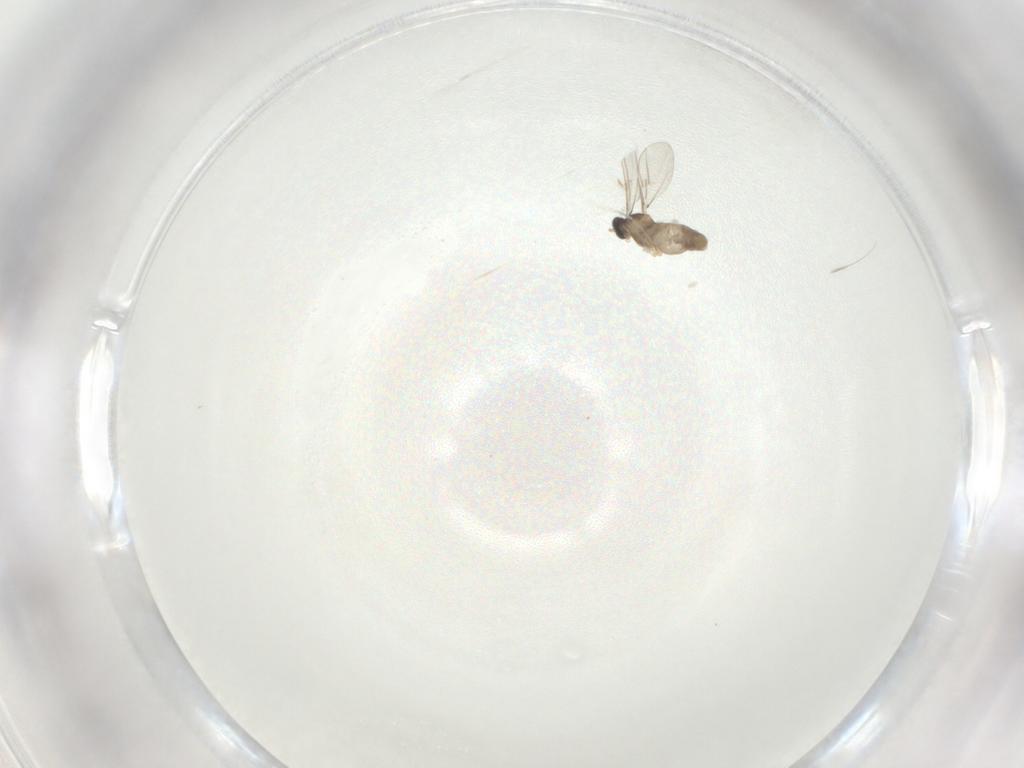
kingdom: Animalia
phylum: Arthropoda
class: Insecta
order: Diptera
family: Cecidomyiidae
